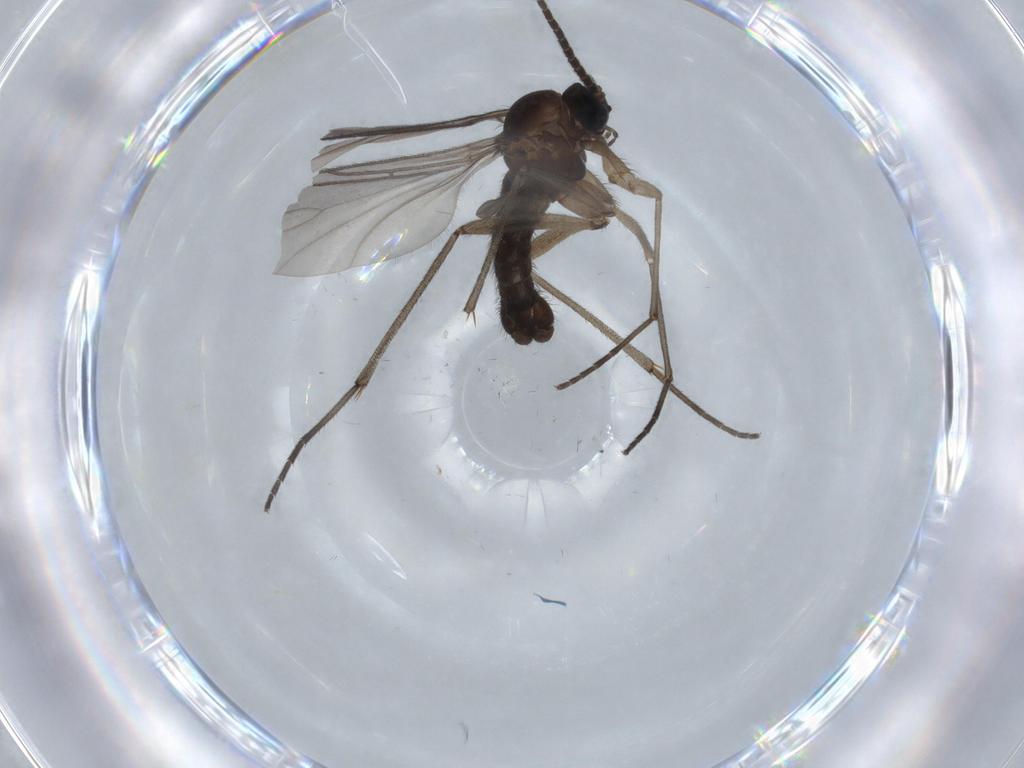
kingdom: Animalia
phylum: Arthropoda
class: Insecta
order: Diptera
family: Sciaridae
